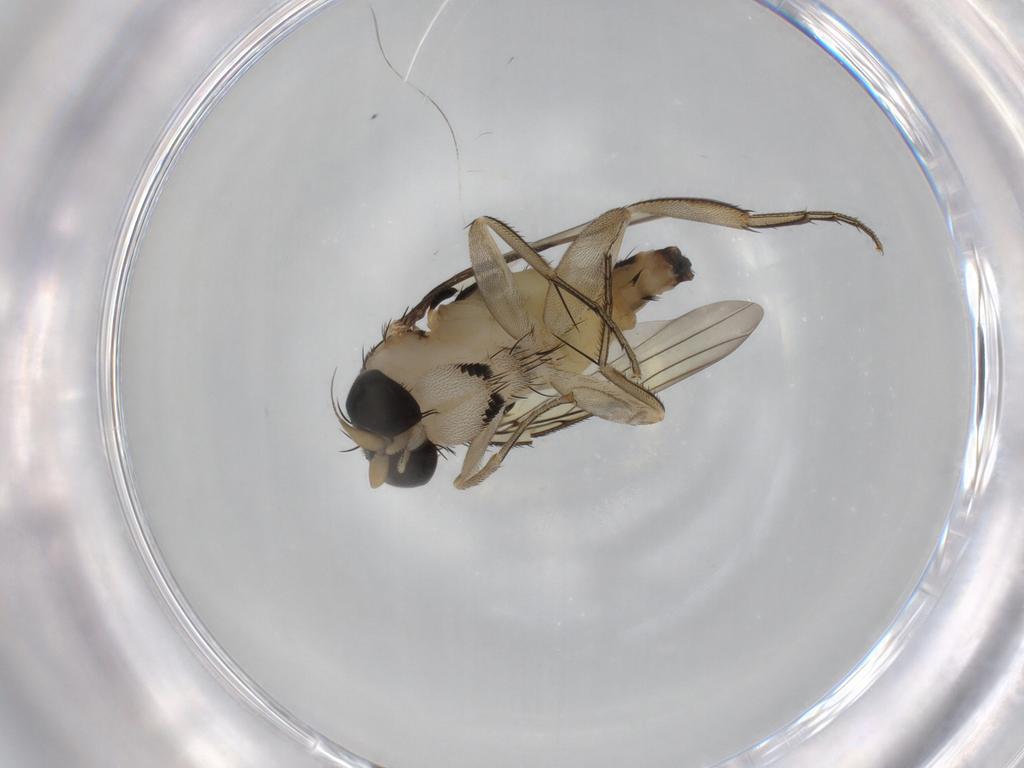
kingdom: Animalia
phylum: Arthropoda
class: Insecta
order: Diptera
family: Phoridae
